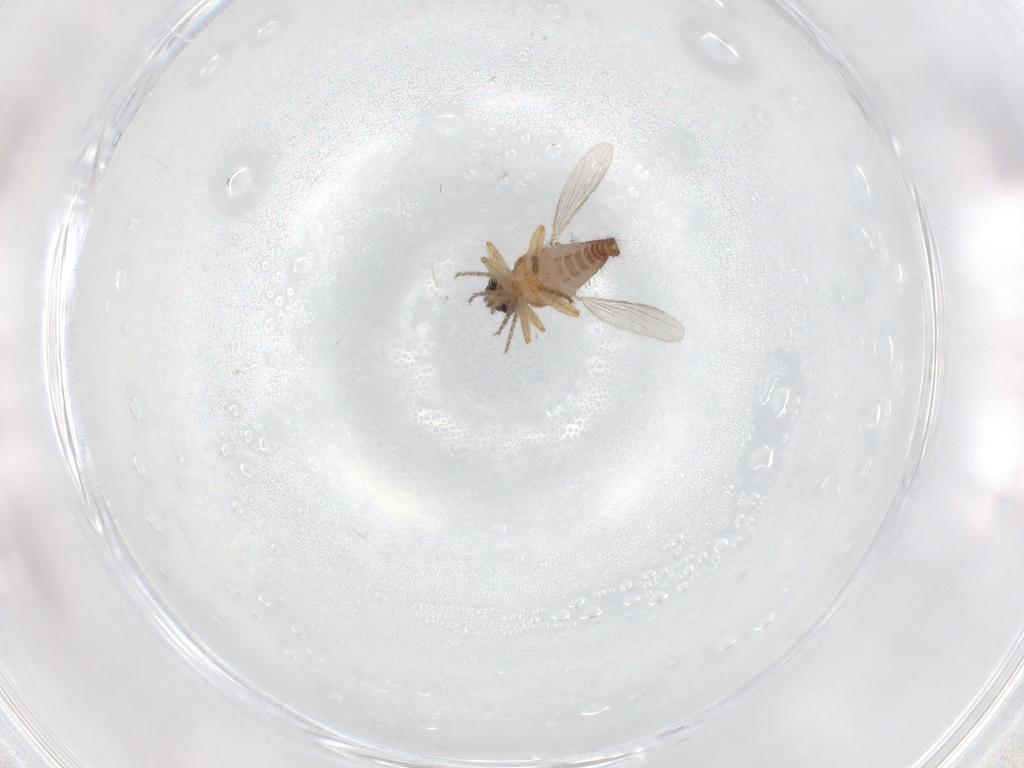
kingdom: Animalia
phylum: Arthropoda
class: Insecta
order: Diptera
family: Ceratopogonidae
